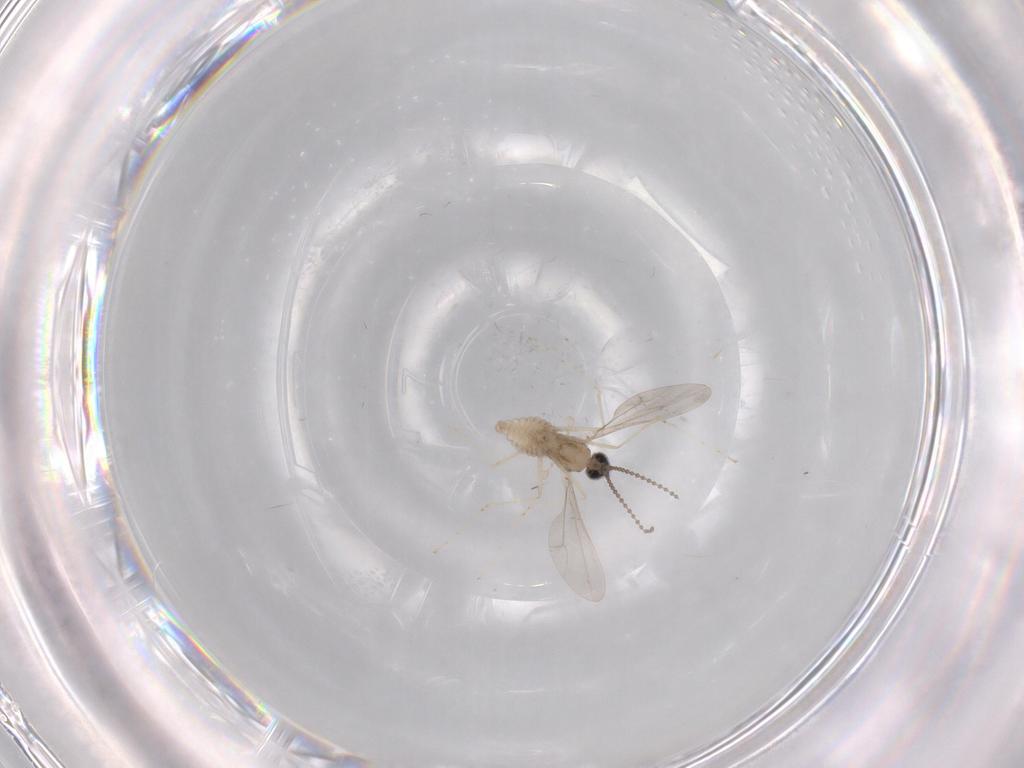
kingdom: Animalia
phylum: Arthropoda
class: Insecta
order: Diptera
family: Cecidomyiidae
